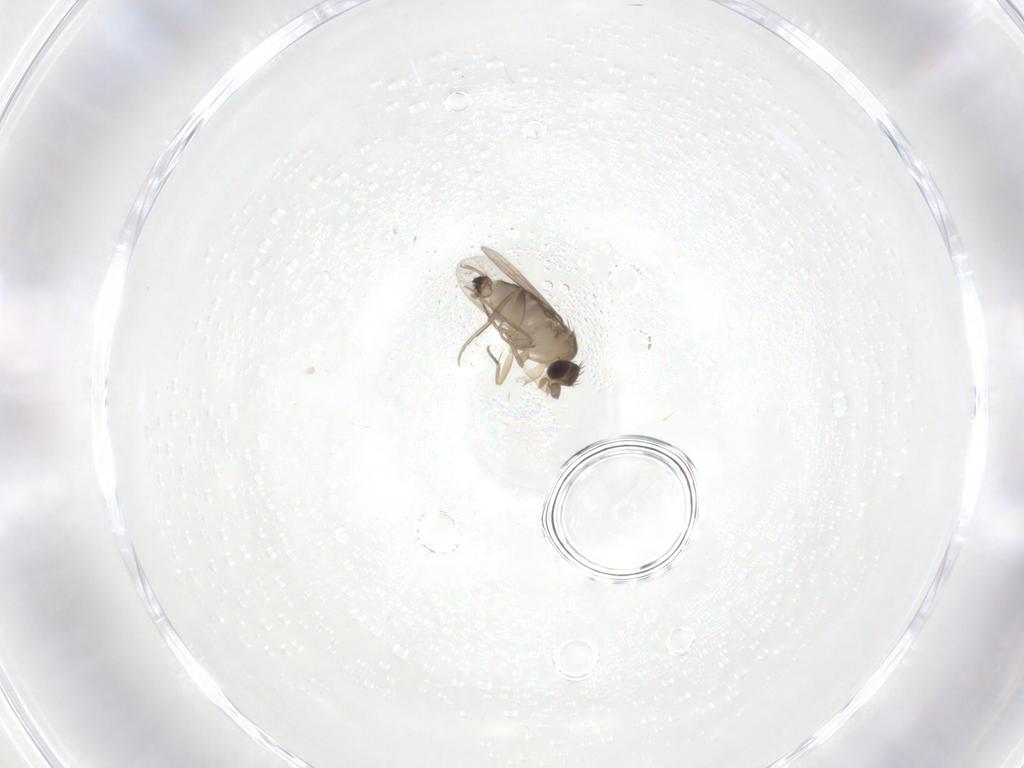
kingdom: Animalia
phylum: Arthropoda
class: Insecta
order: Diptera
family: Phoridae
